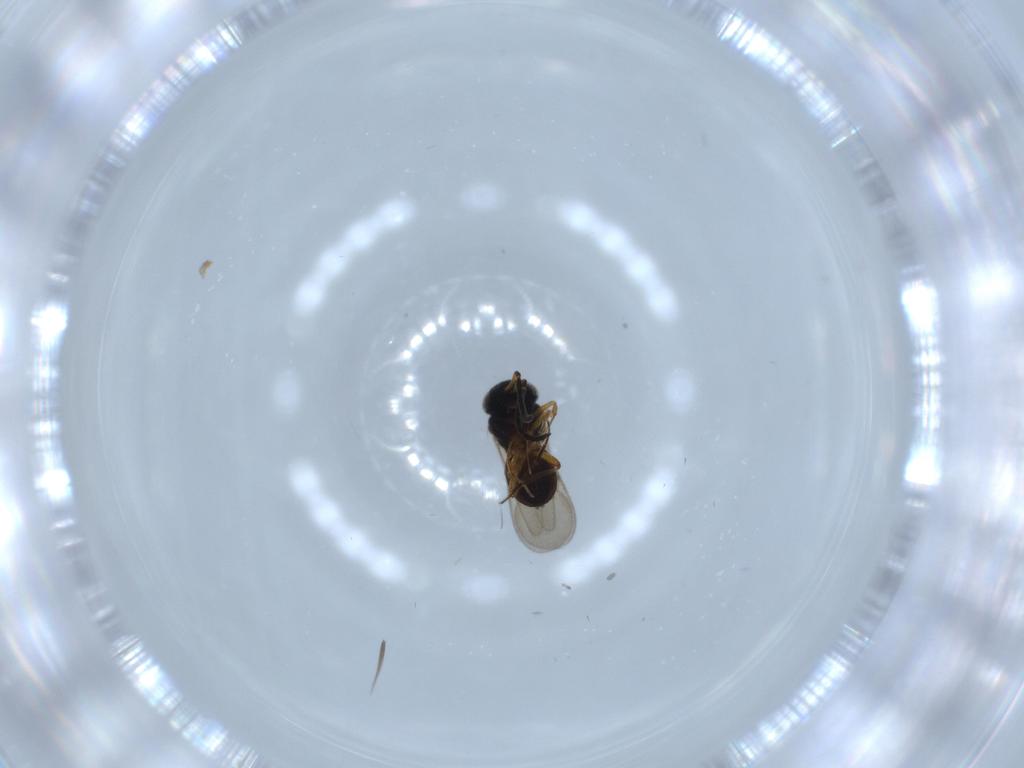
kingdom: Animalia
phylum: Arthropoda
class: Insecta
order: Hymenoptera
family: Scelionidae
